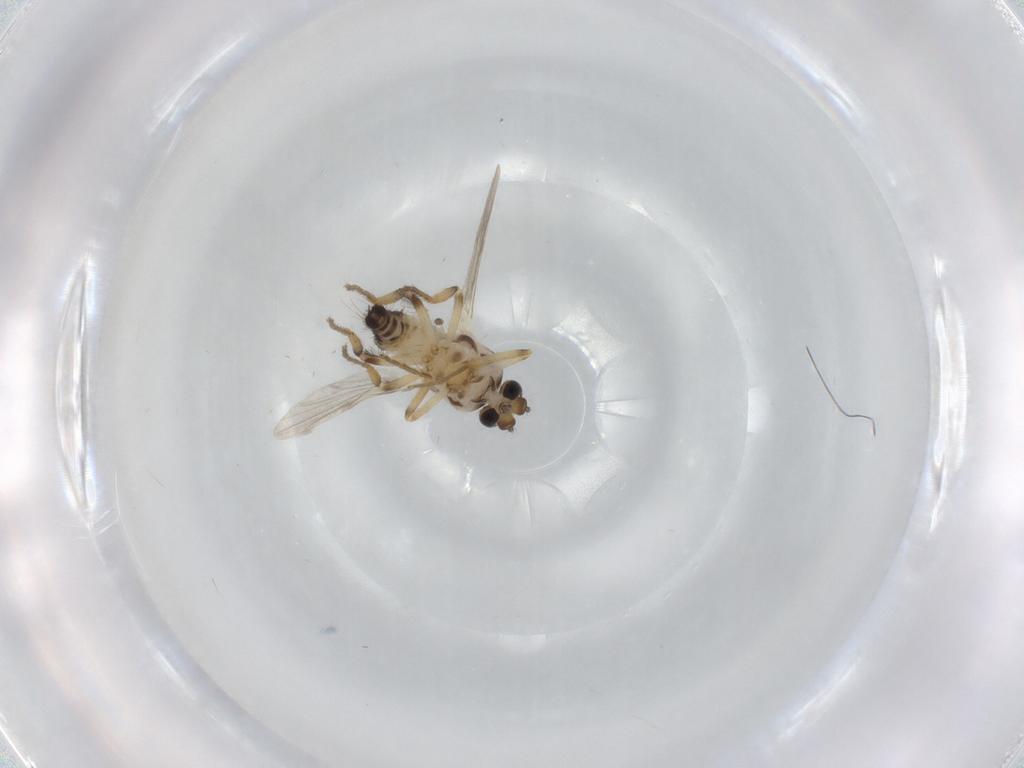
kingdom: Animalia
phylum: Arthropoda
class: Insecta
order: Diptera
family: Ceratopogonidae
